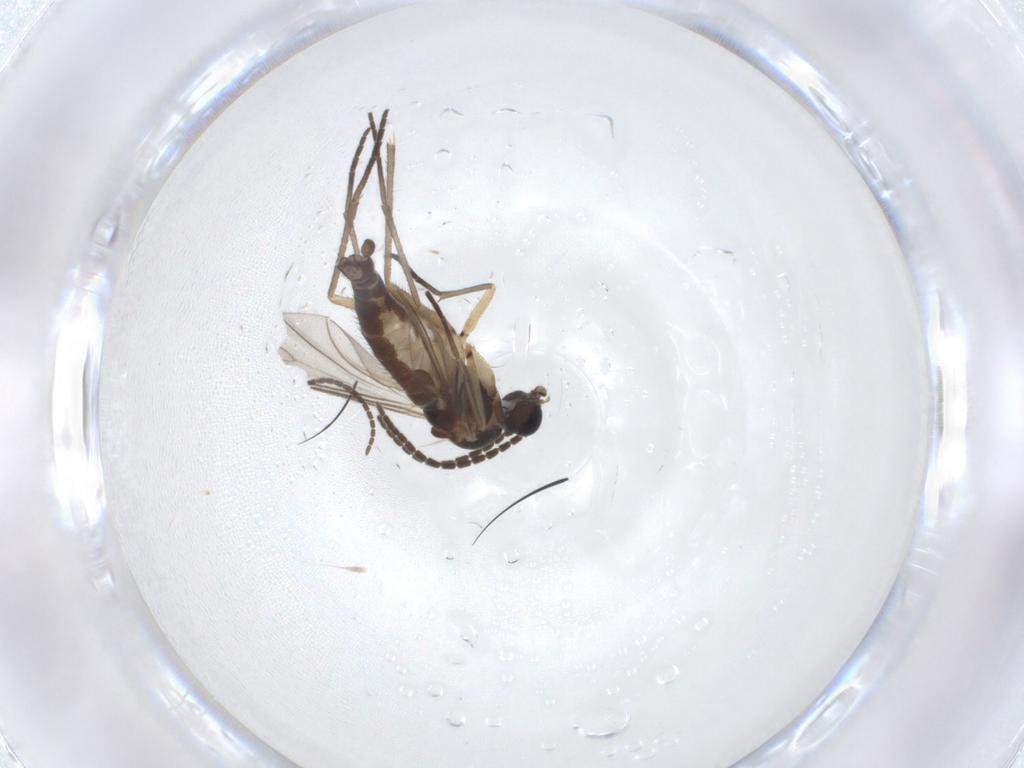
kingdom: Animalia
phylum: Arthropoda
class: Insecta
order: Diptera
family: Sciaridae
